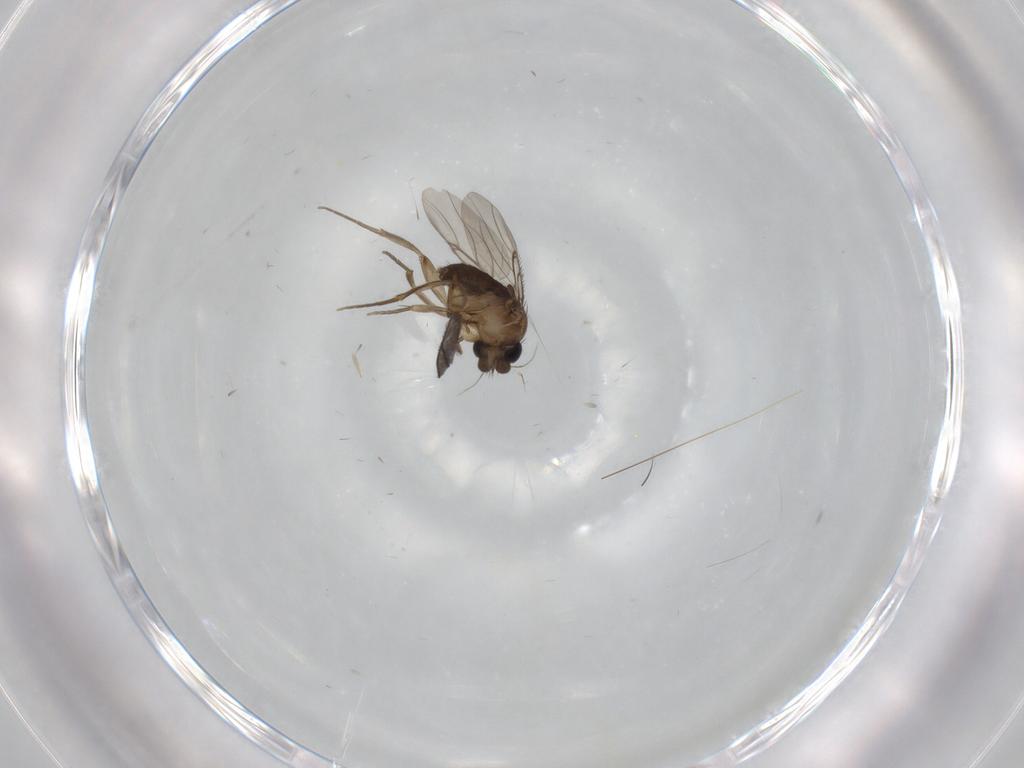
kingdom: Animalia
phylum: Arthropoda
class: Insecta
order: Diptera
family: Phoridae
